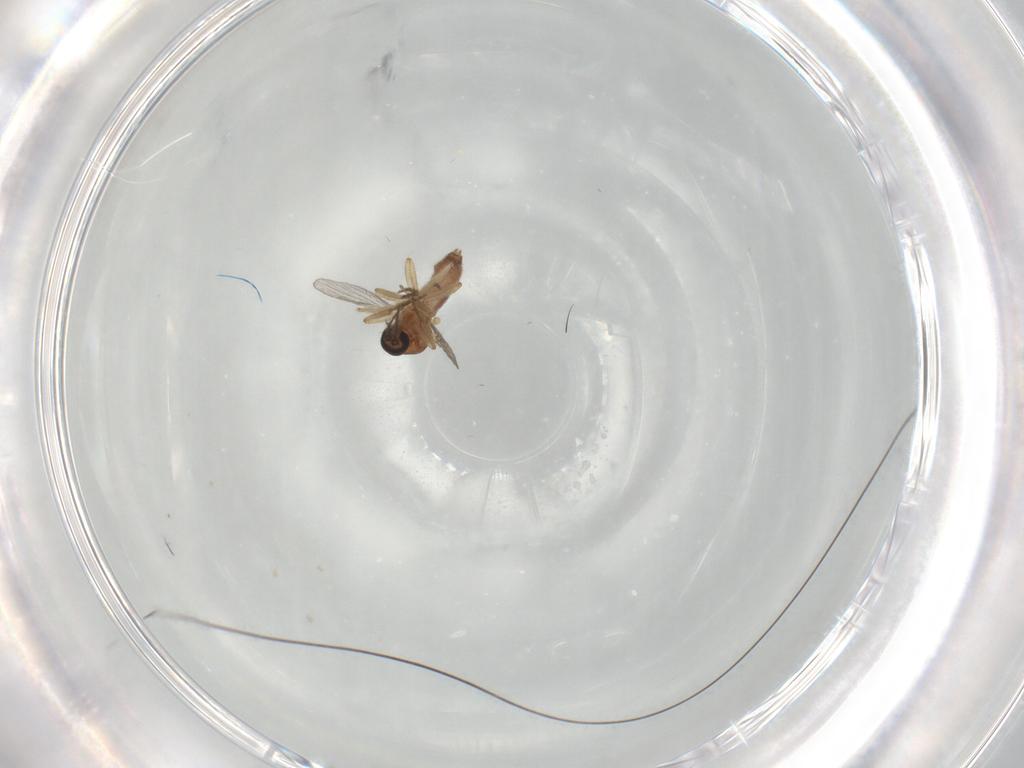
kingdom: Animalia
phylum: Arthropoda
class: Insecta
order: Diptera
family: Ceratopogonidae
